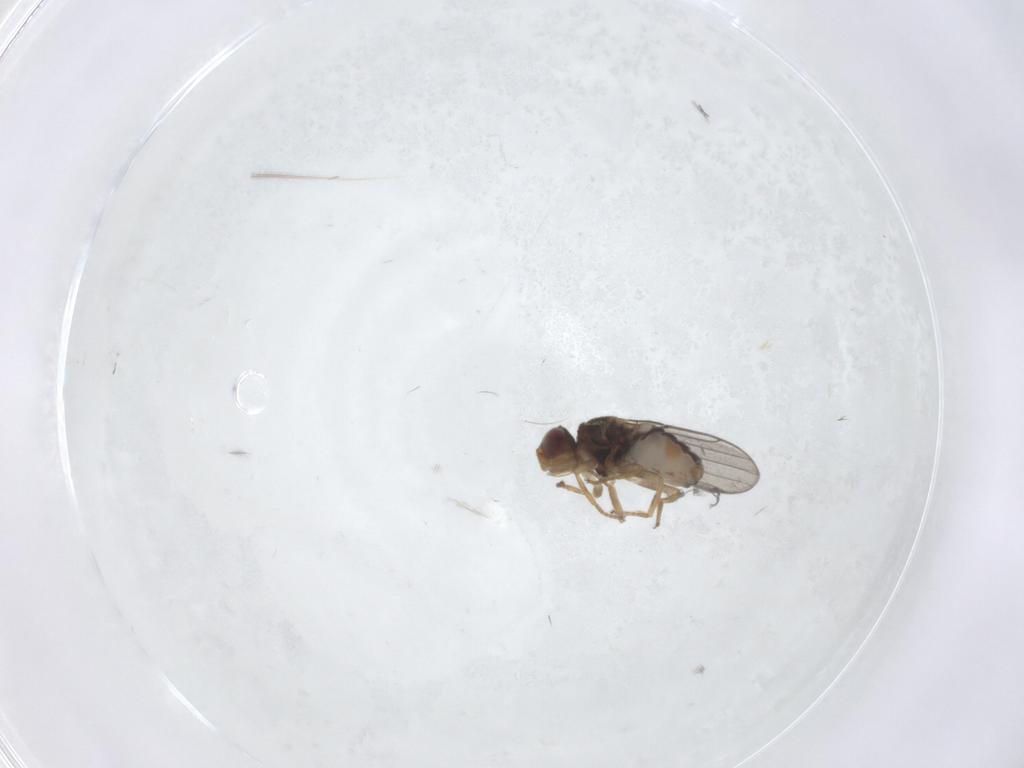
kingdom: Animalia
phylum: Arthropoda
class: Insecta
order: Diptera
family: Chloropidae
